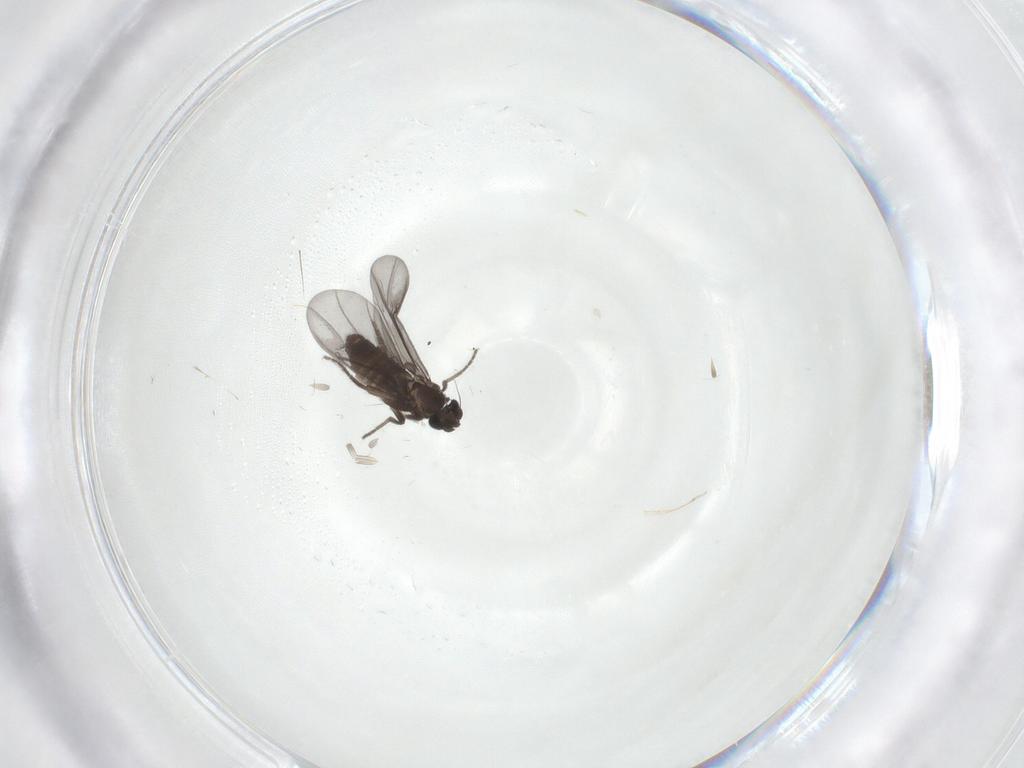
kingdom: Animalia
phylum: Arthropoda
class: Insecta
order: Diptera
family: Phoridae
